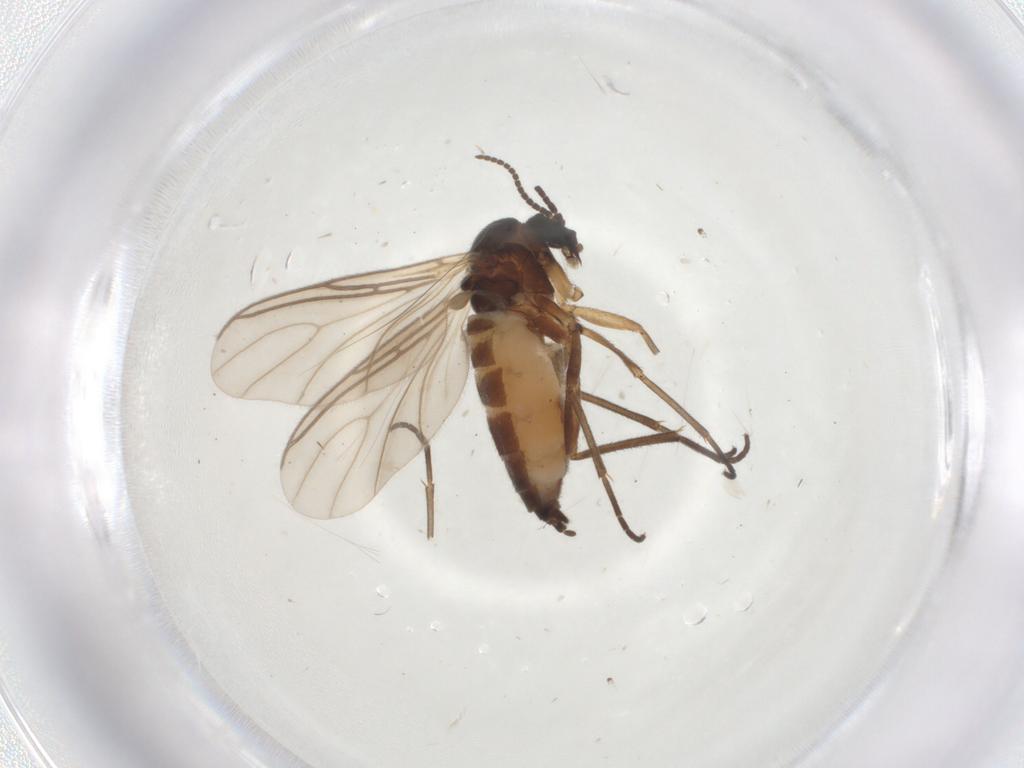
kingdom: Animalia
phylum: Arthropoda
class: Insecta
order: Diptera
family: Sciaridae
